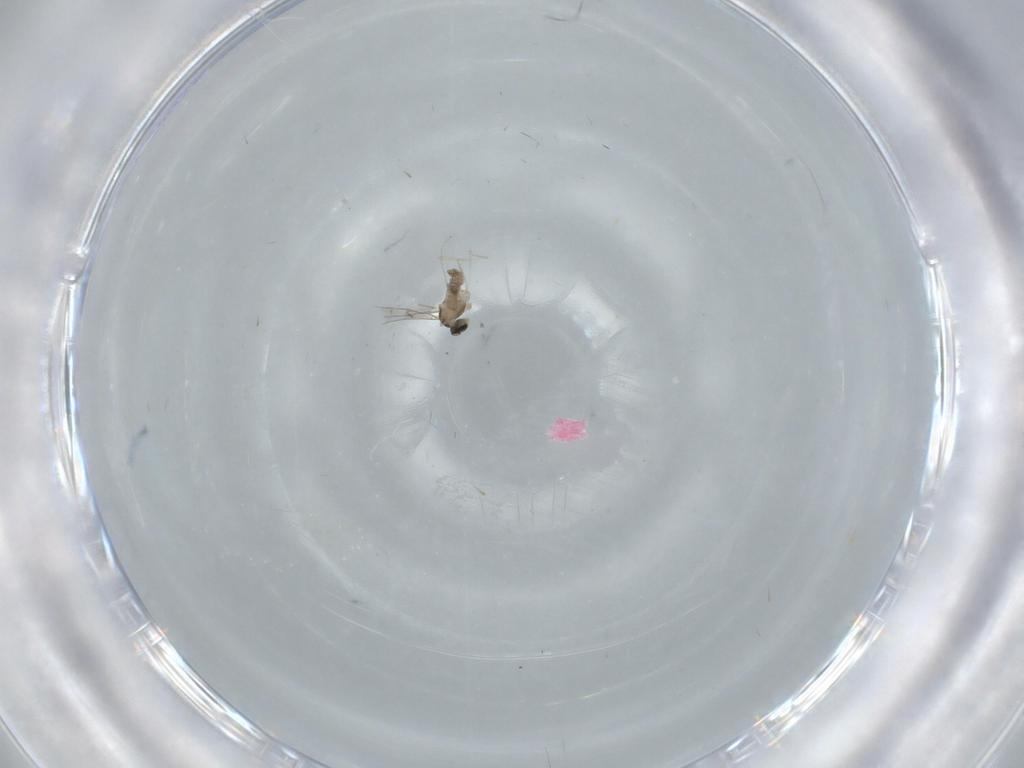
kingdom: Animalia
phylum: Arthropoda
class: Insecta
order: Diptera
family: Cecidomyiidae
